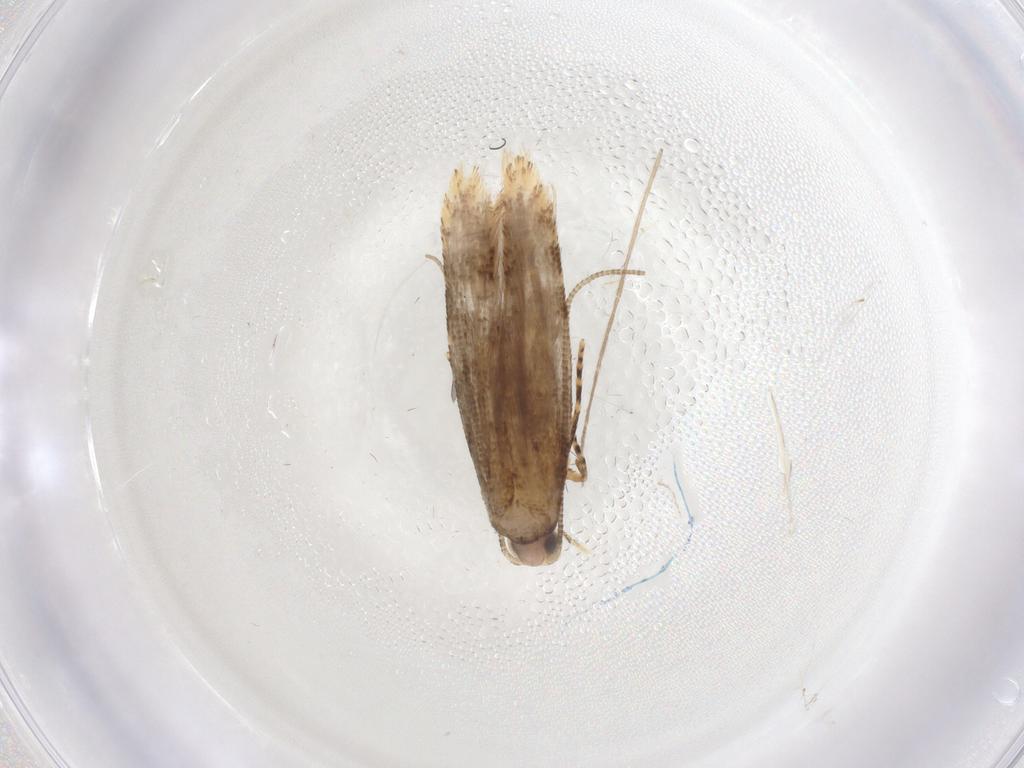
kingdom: Animalia
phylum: Arthropoda
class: Insecta
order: Lepidoptera
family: Tineidae
